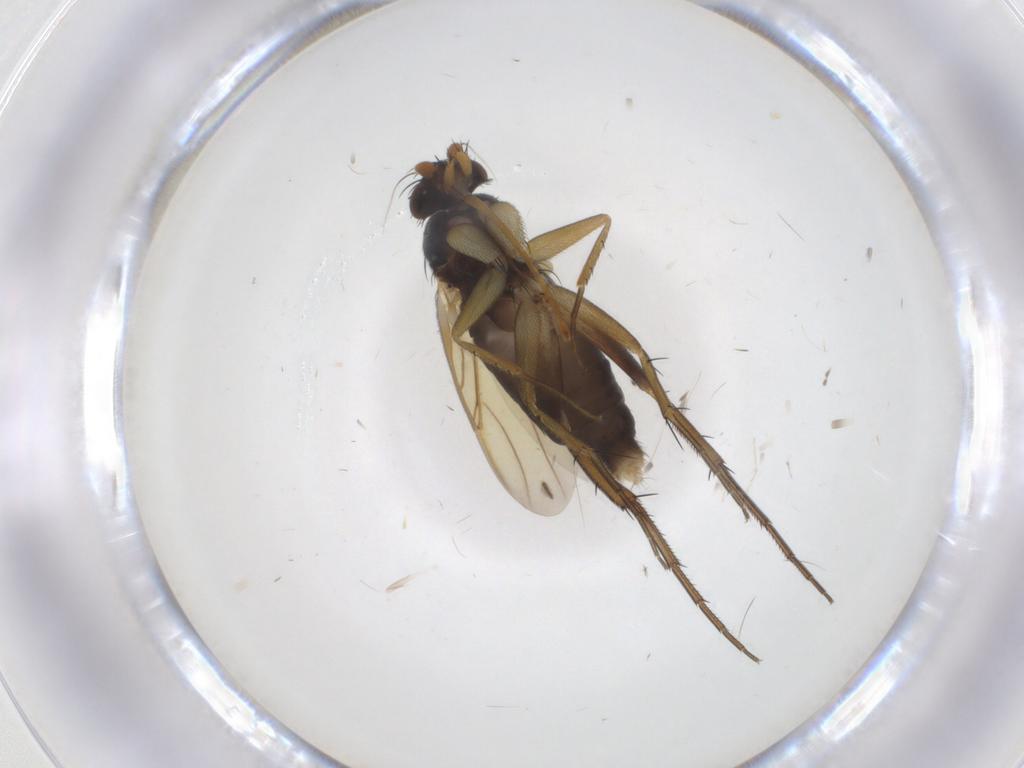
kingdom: Animalia
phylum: Arthropoda
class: Insecta
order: Diptera
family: Phoridae
